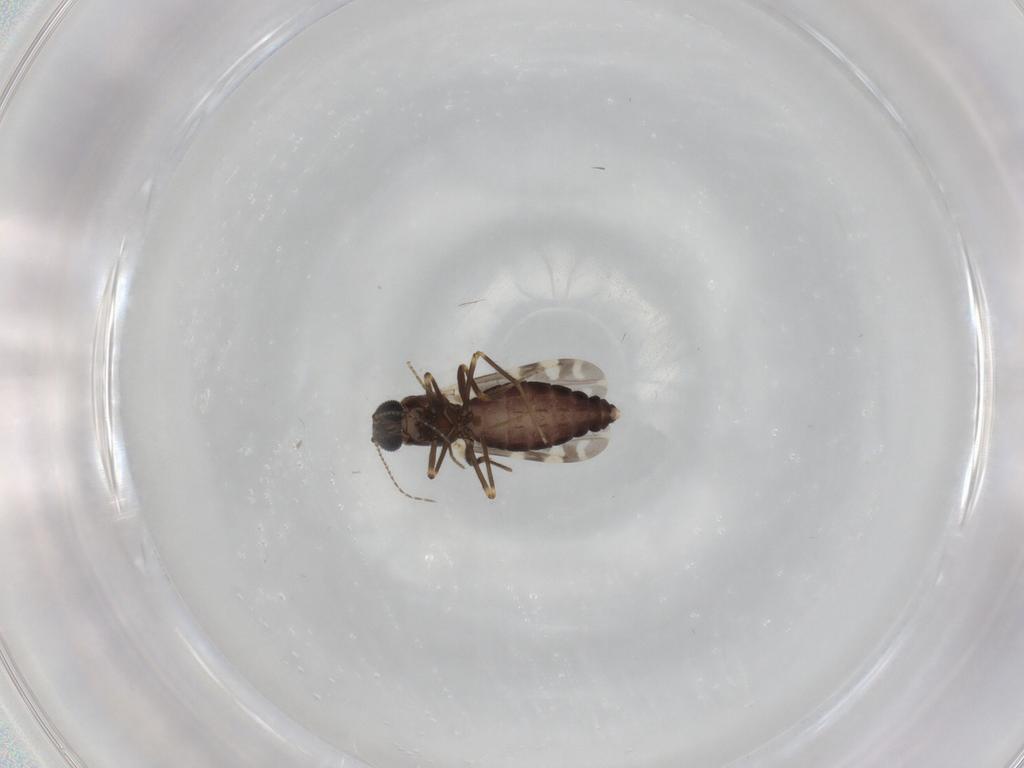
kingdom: Animalia
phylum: Arthropoda
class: Insecta
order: Diptera
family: Ceratopogonidae
